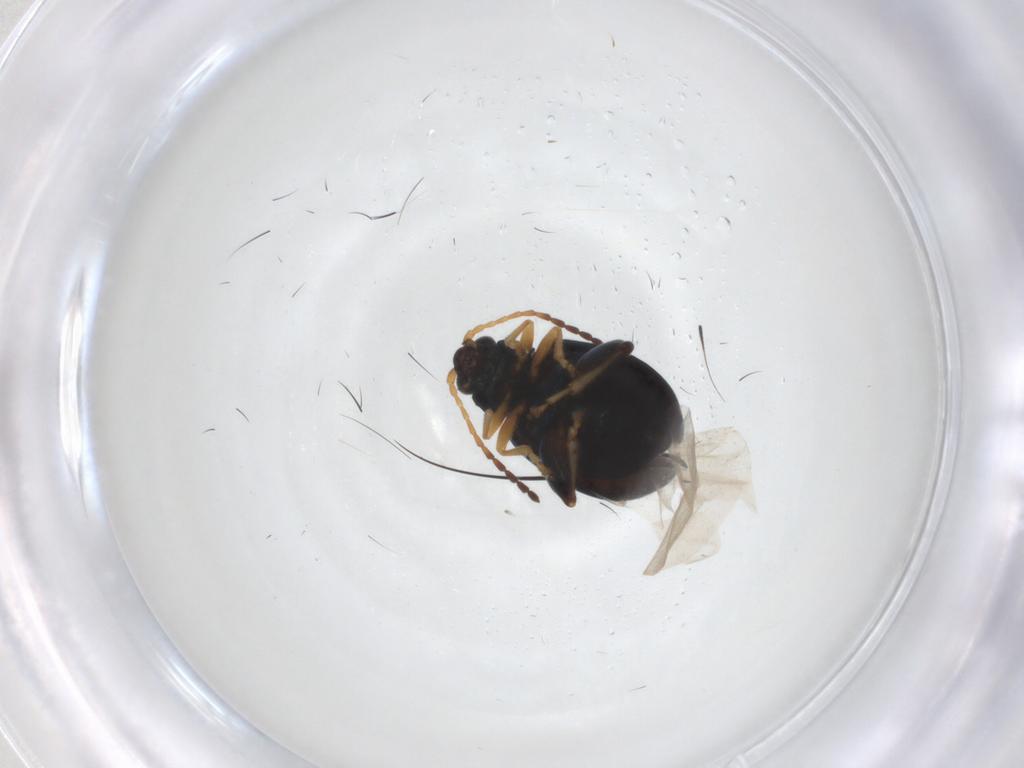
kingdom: Animalia
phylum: Arthropoda
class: Insecta
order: Coleoptera
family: Chrysomelidae
